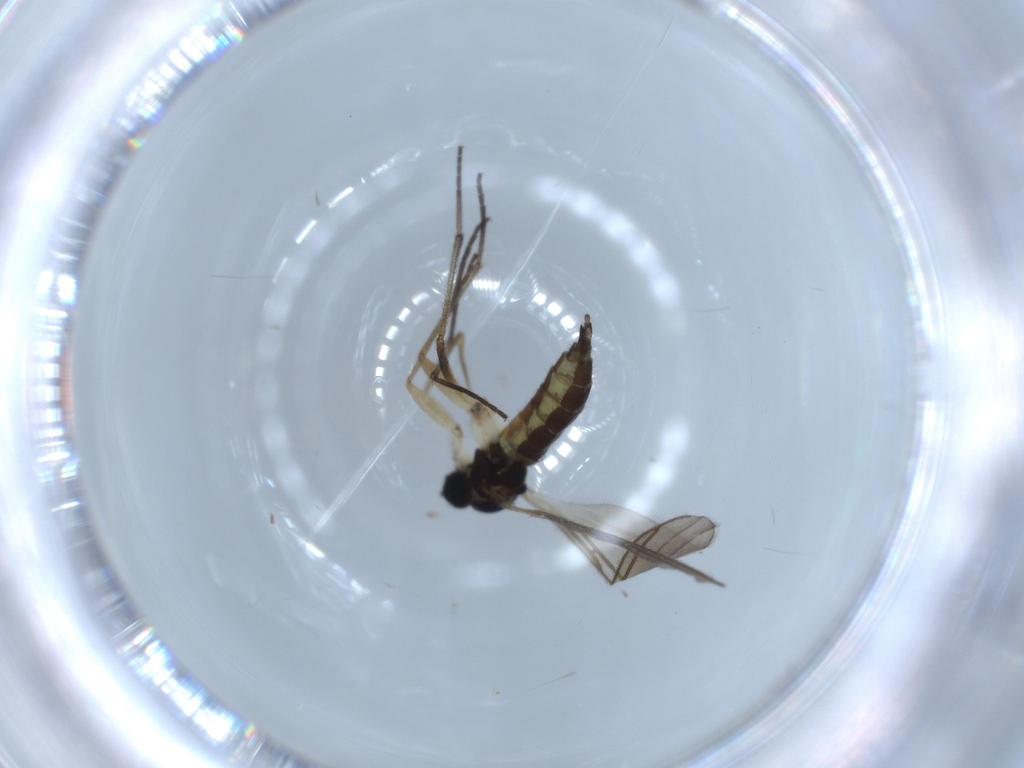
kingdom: Animalia
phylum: Arthropoda
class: Insecta
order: Diptera
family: Sciaridae
